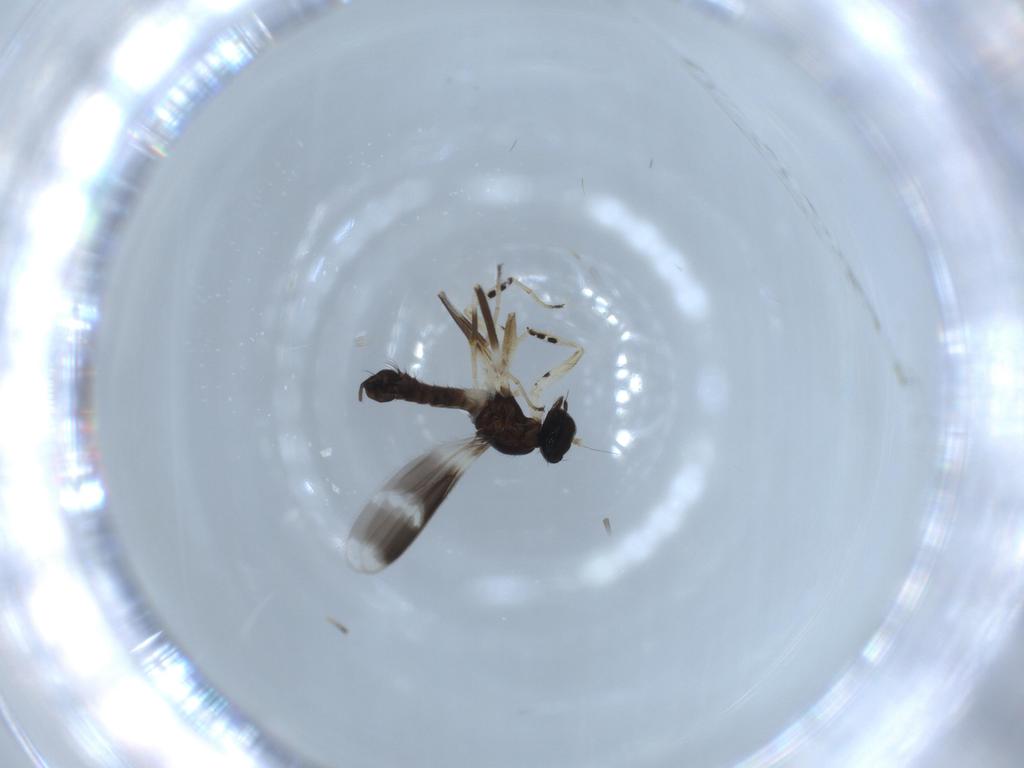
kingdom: Animalia
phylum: Arthropoda
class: Insecta
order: Diptera
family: Hybotidae
